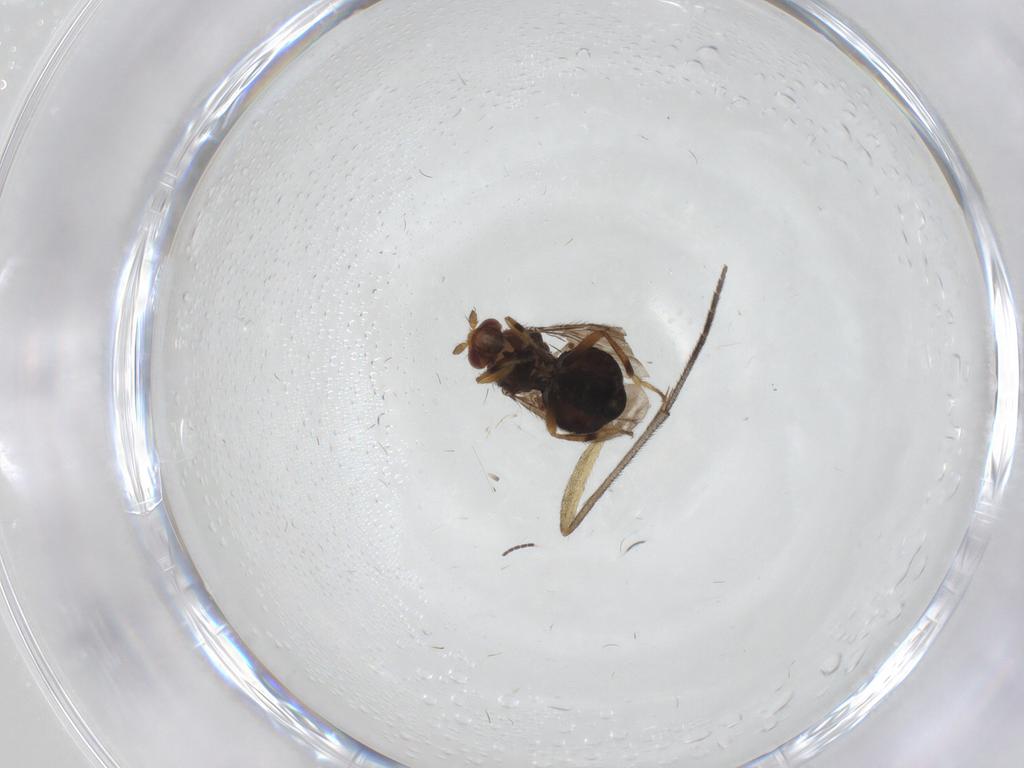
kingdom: Animalia
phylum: Arthropoda
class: Insecta
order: Diptera
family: Sphaeroceridae
